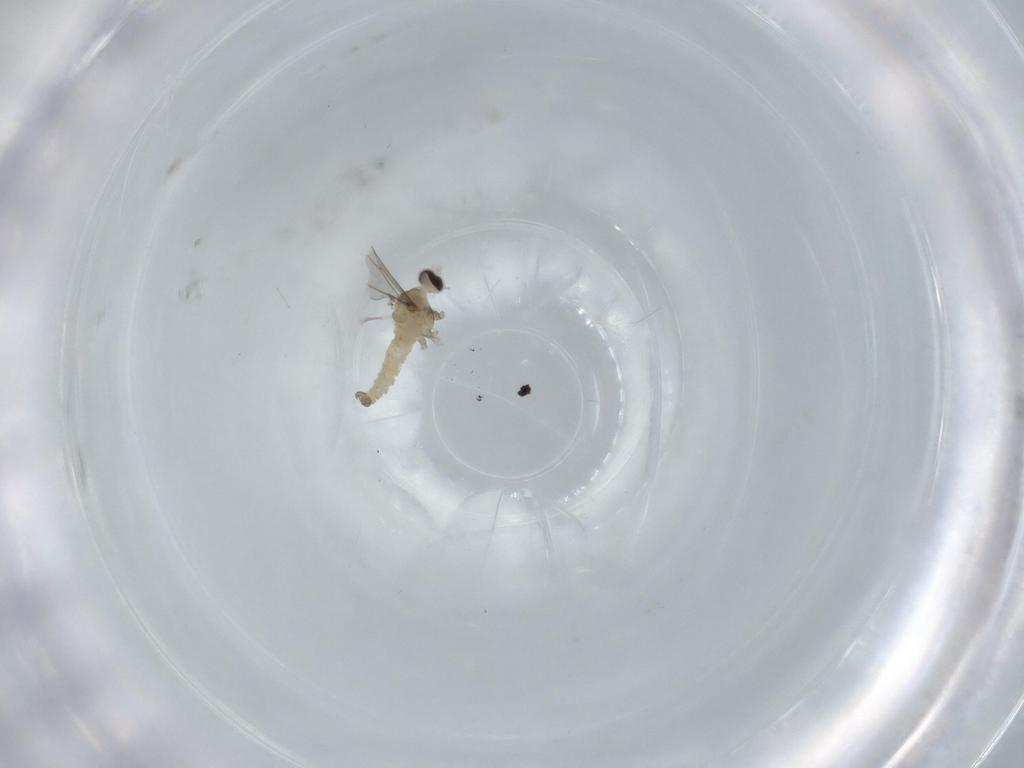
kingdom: Animalia
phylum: Arthropoda
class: Insecta
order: Diptera
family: Cecidomyiidae
